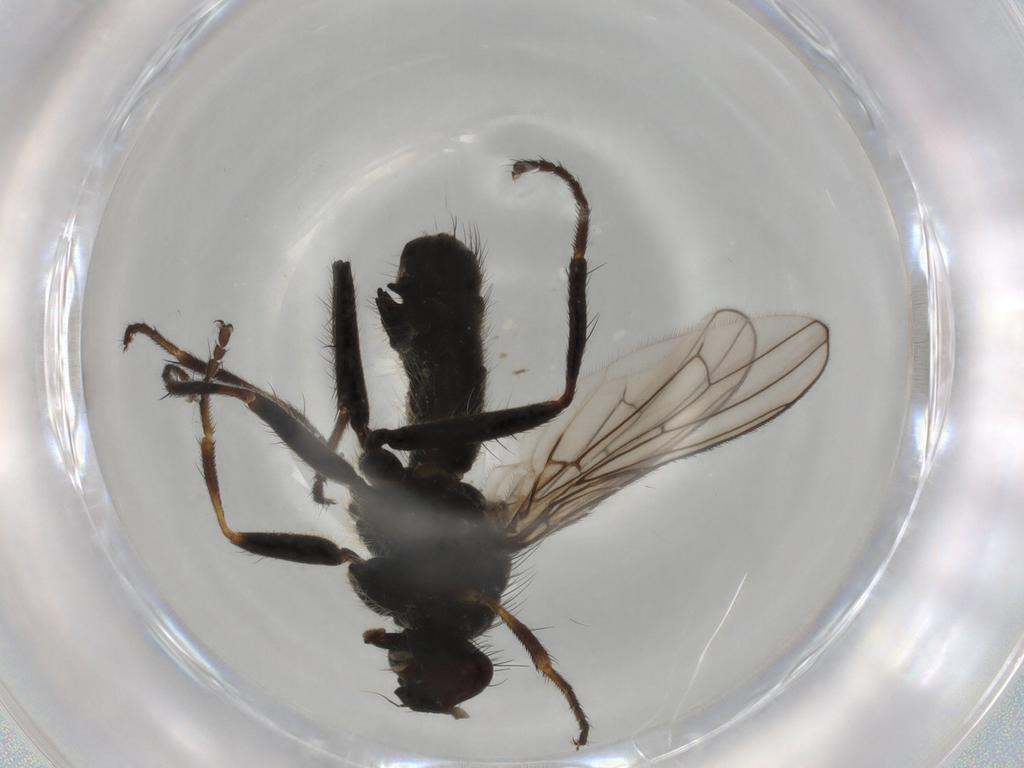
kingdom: Animalia
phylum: Arthropoda
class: Insecta
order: Diptera
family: Scathophagidae
